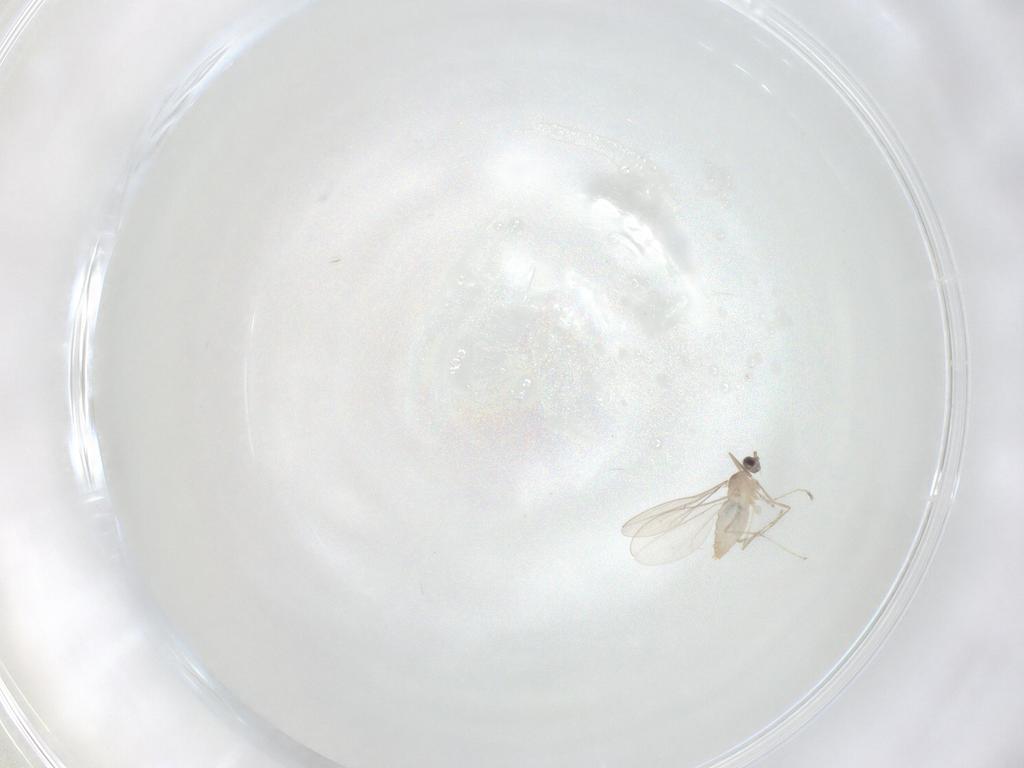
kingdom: Animalia
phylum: Arthropoda
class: Insecta
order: Diptera
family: Cecidomyiidae
